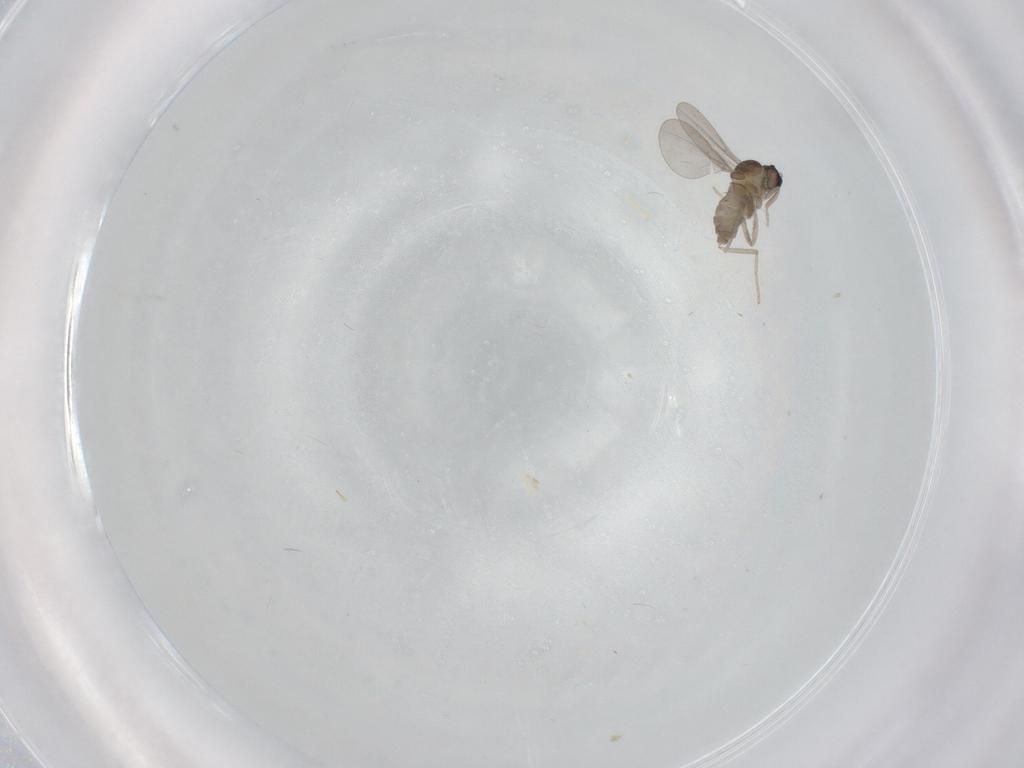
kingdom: Animalia
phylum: Arthropoda
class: Insecta
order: Diptera
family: Cecidomyiidae
